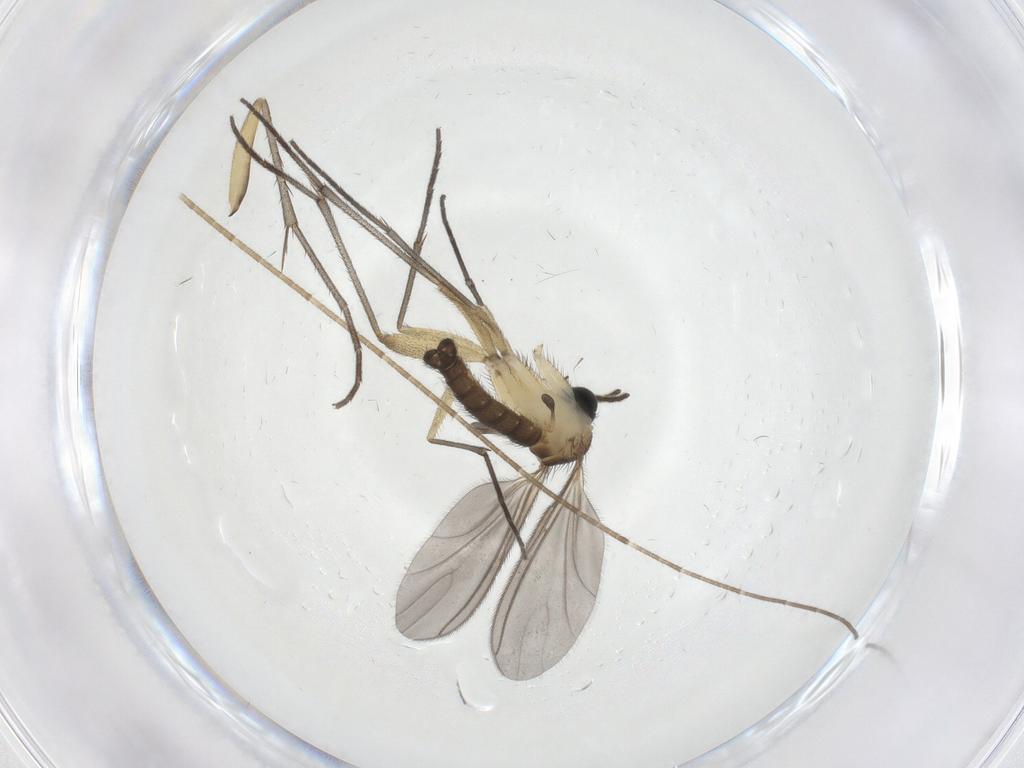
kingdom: Animalia
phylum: Arthropoda
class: Insecta
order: Diptera
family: Sciaridae
